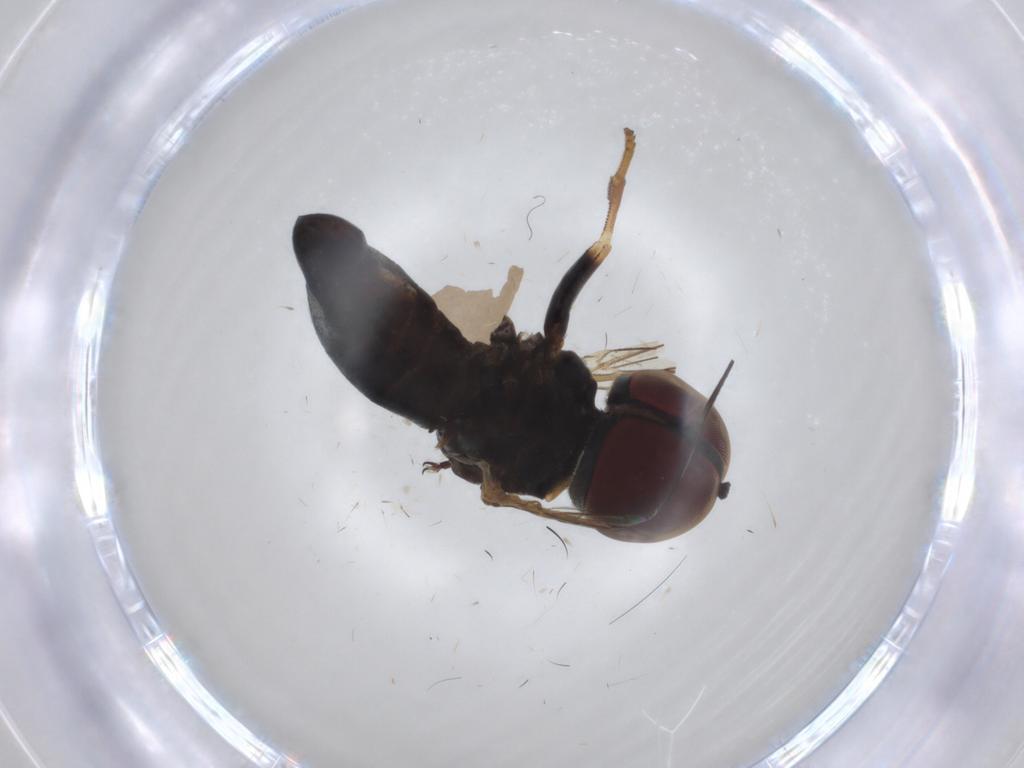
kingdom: Animalia
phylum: Arthropoda
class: Insecta
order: Diptera
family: Pipunculidae
